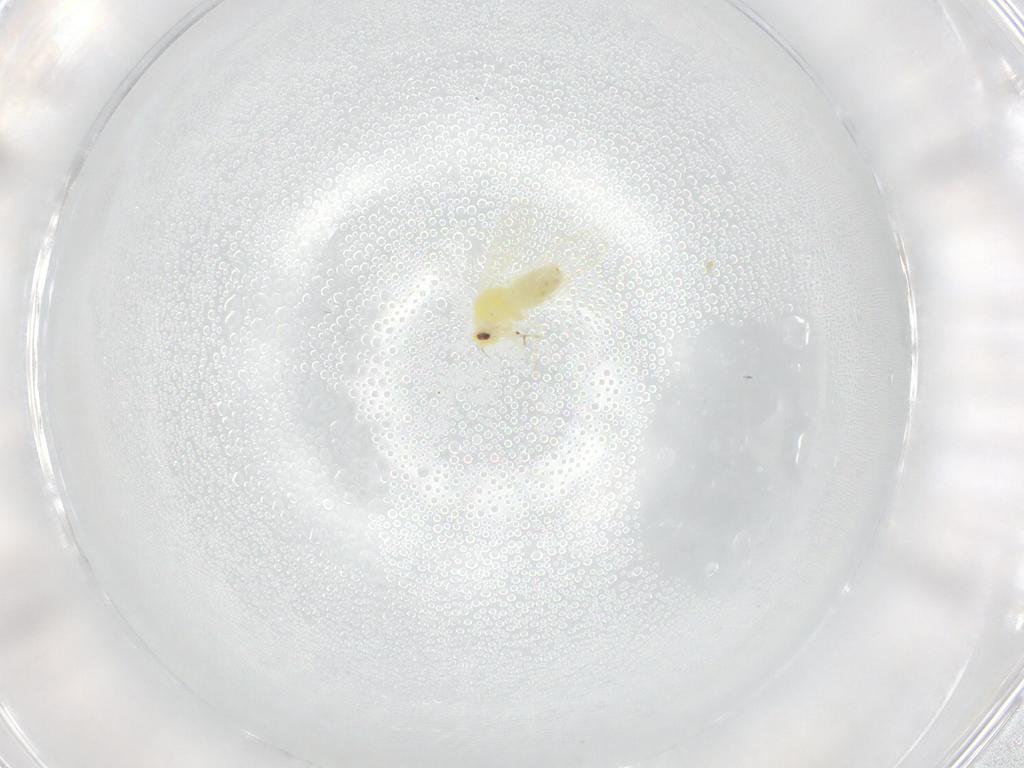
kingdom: Animalia
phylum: Arthropoda
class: Insecta
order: Hemiptera
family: Aleyrodidae
